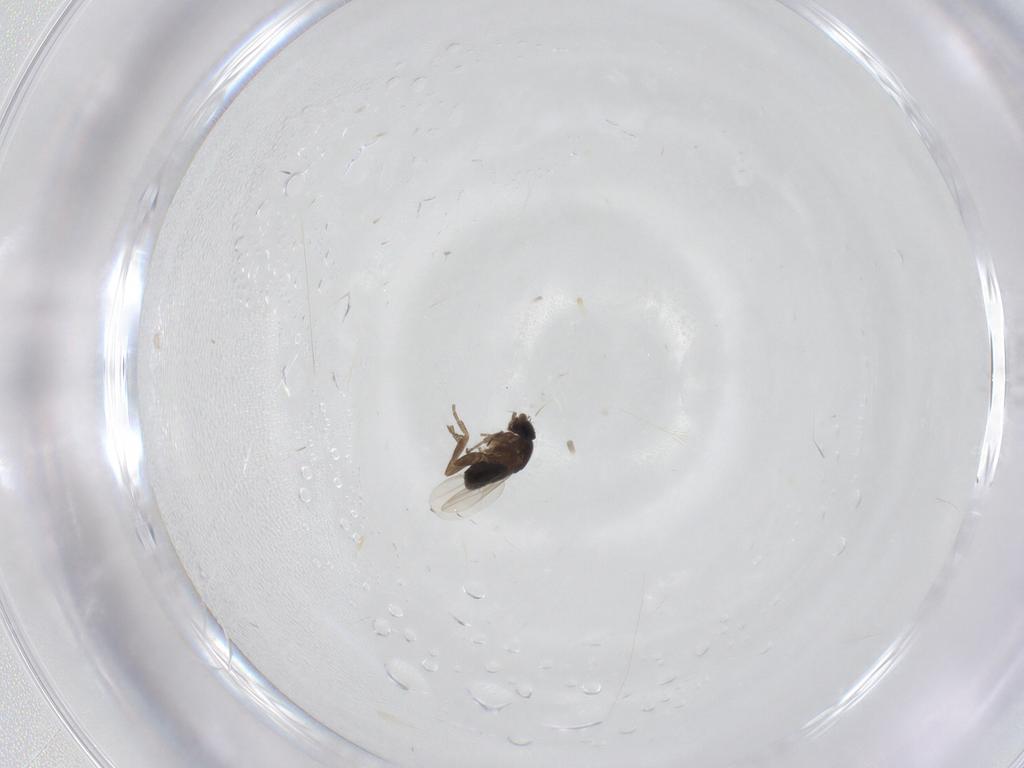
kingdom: Animalia
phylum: Arthropoda
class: Insecta
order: Diptera
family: Phoridae
